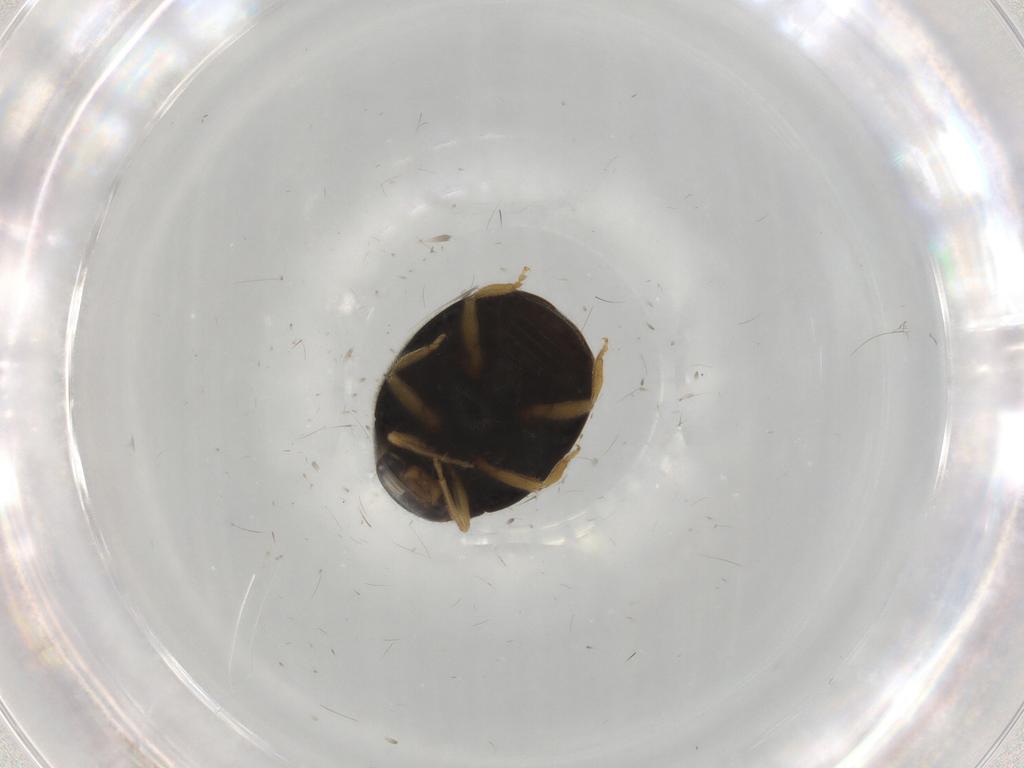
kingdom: Animalia
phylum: Arthropoda
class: Insecta
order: Coleoptera
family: Coccinellidae
